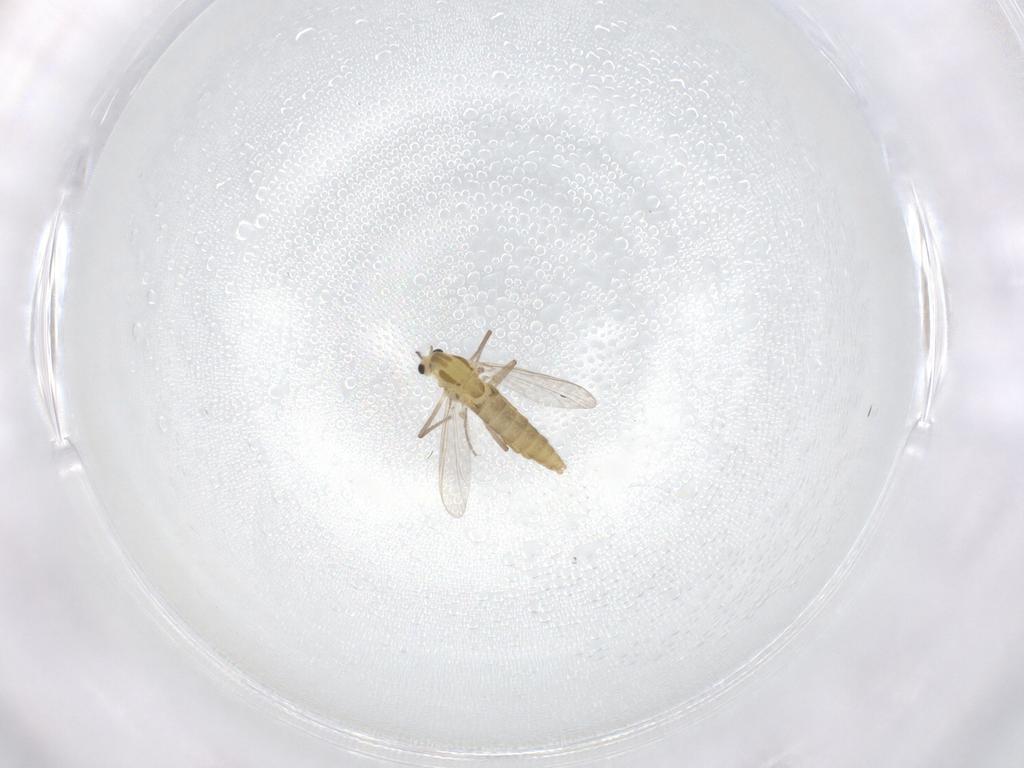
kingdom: Animalia
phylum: Arthropoda
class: Insecta
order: Diptera
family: Chironomidae
